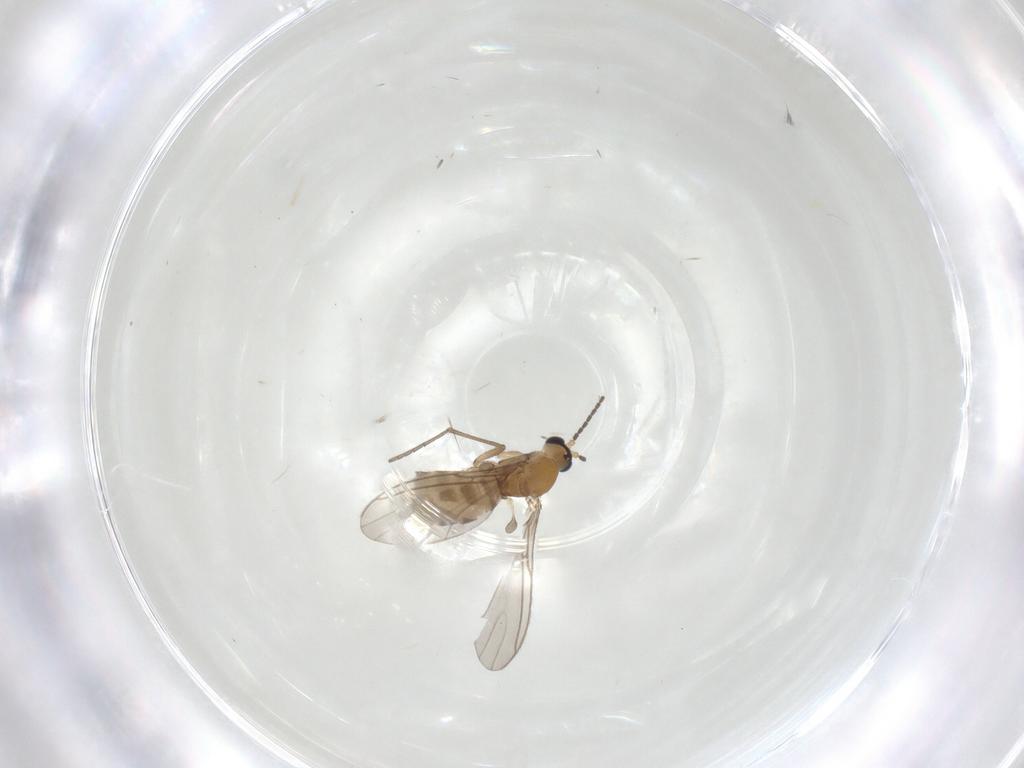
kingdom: Animalia
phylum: Arthropoda
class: Insecta
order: Diptera
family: Sciaridae
